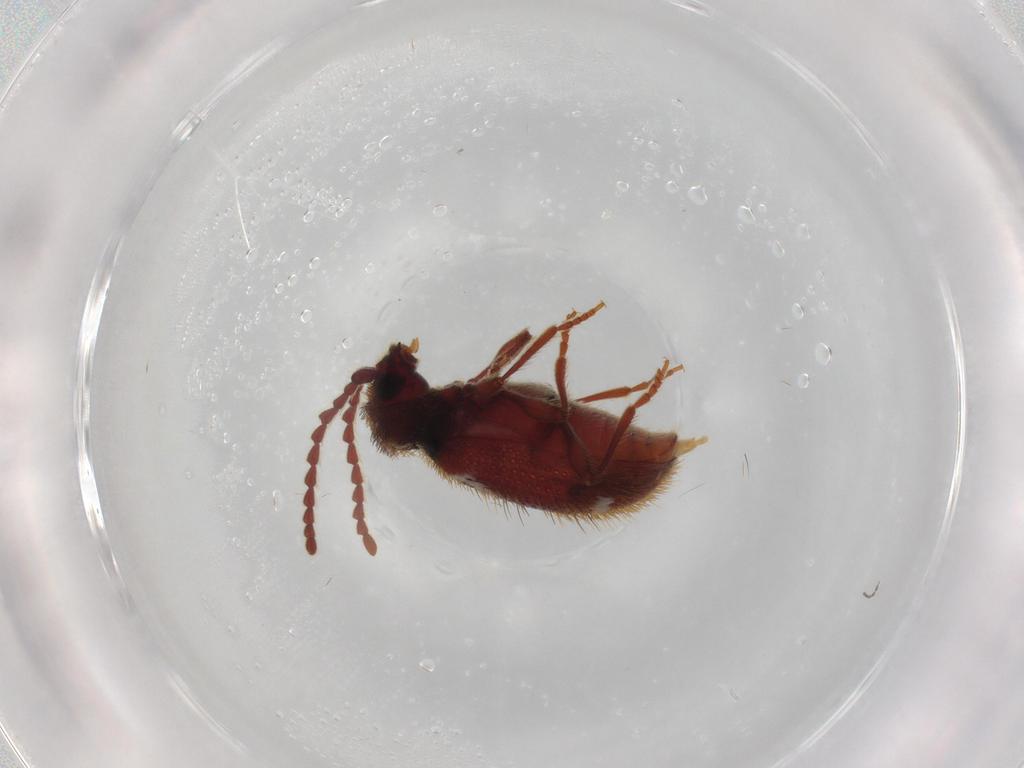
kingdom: Animalia
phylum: Arthropoda
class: Insecta
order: Coleoptera
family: Ptinidae
